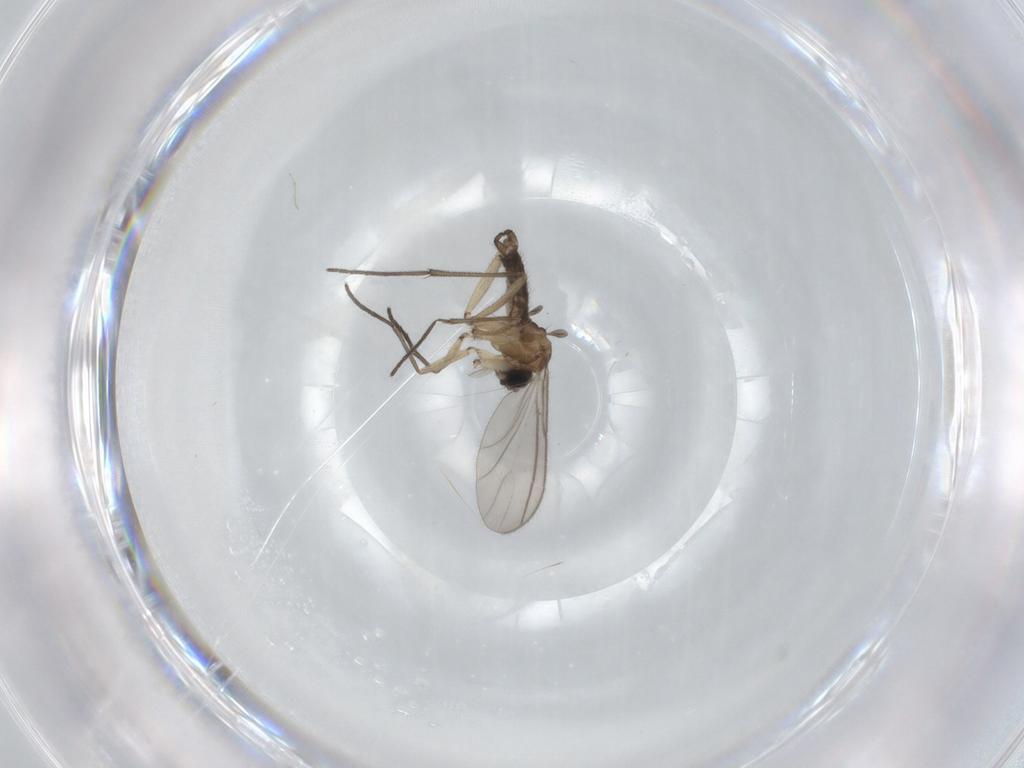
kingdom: Animalia
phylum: Arthropoda
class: Insecta
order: Diptera
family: Sciaridae
